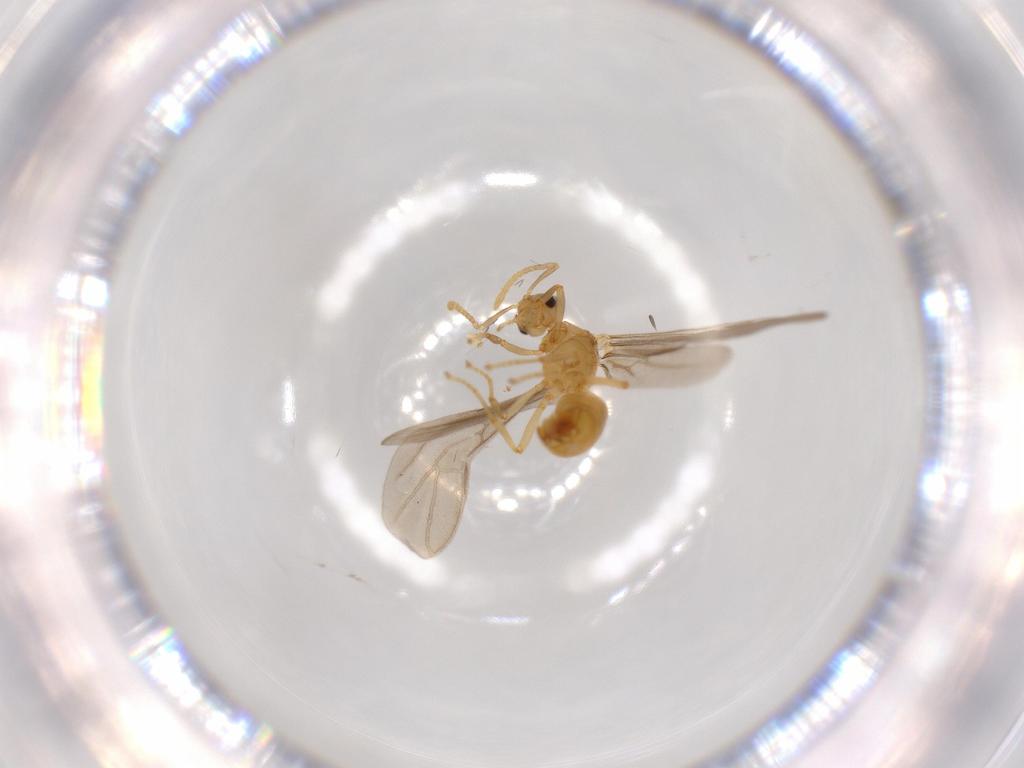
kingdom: Animalia
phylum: Arthropoda
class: Insecta
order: Hymenoptera
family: Formicidae
